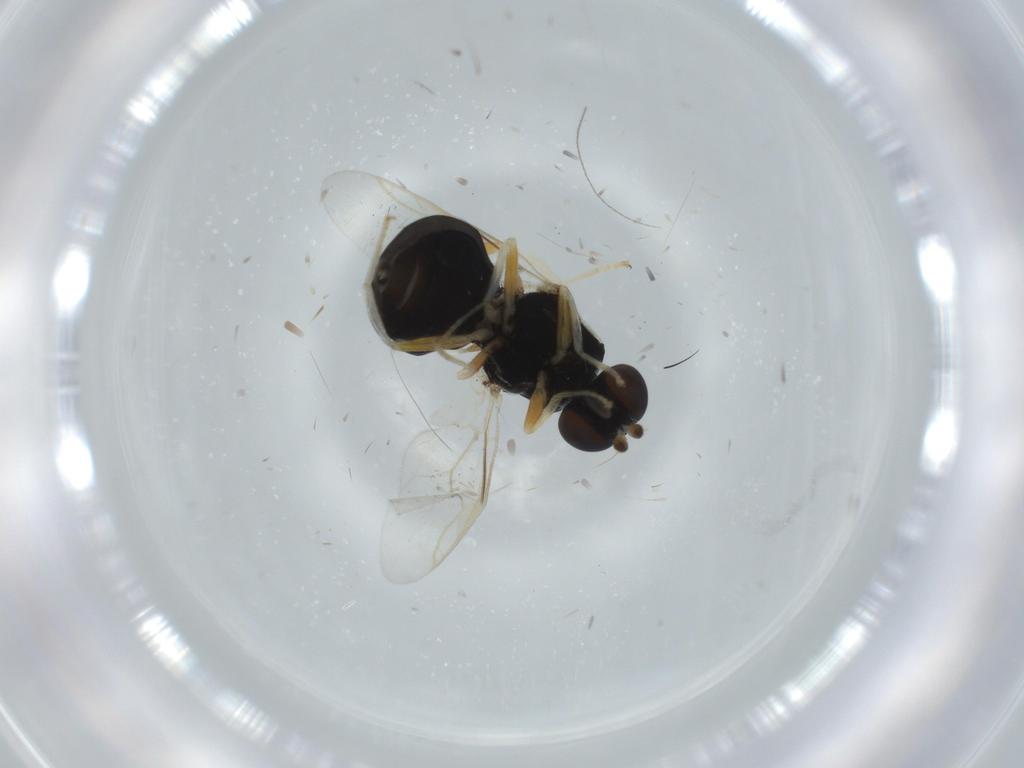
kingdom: Animalia
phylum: Arthropoda
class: Insecta
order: Diptera
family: Stratiomyidae
